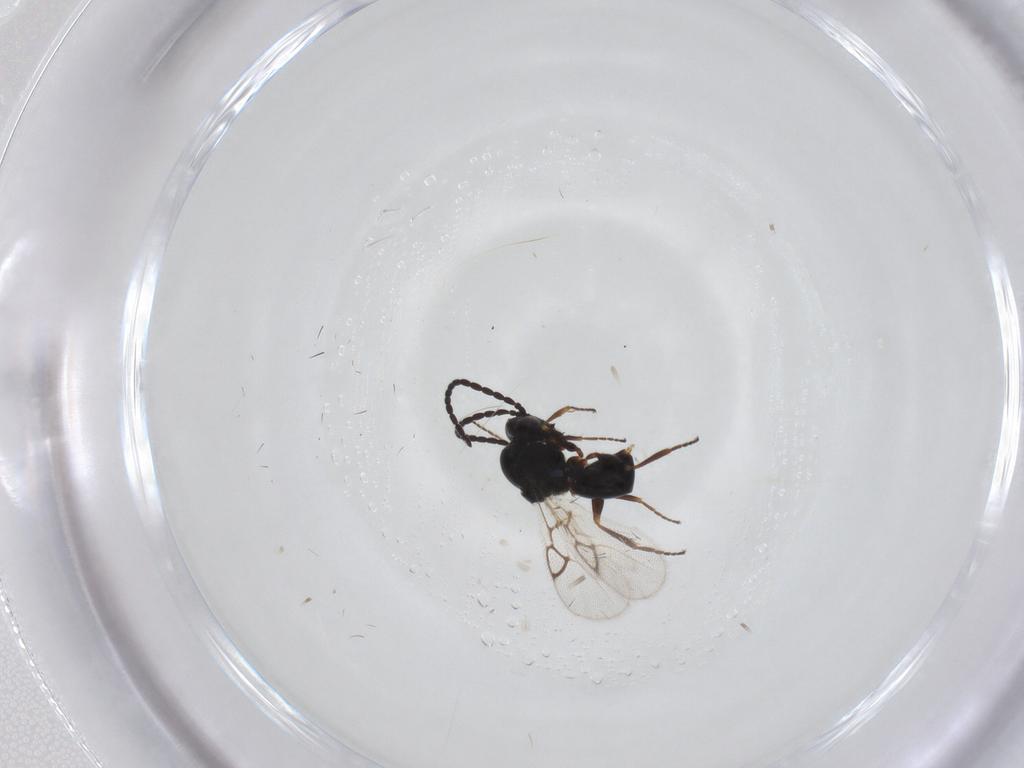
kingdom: Animalia
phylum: Arthropoda
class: Insecta
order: Hymenoptera
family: Figitidae
